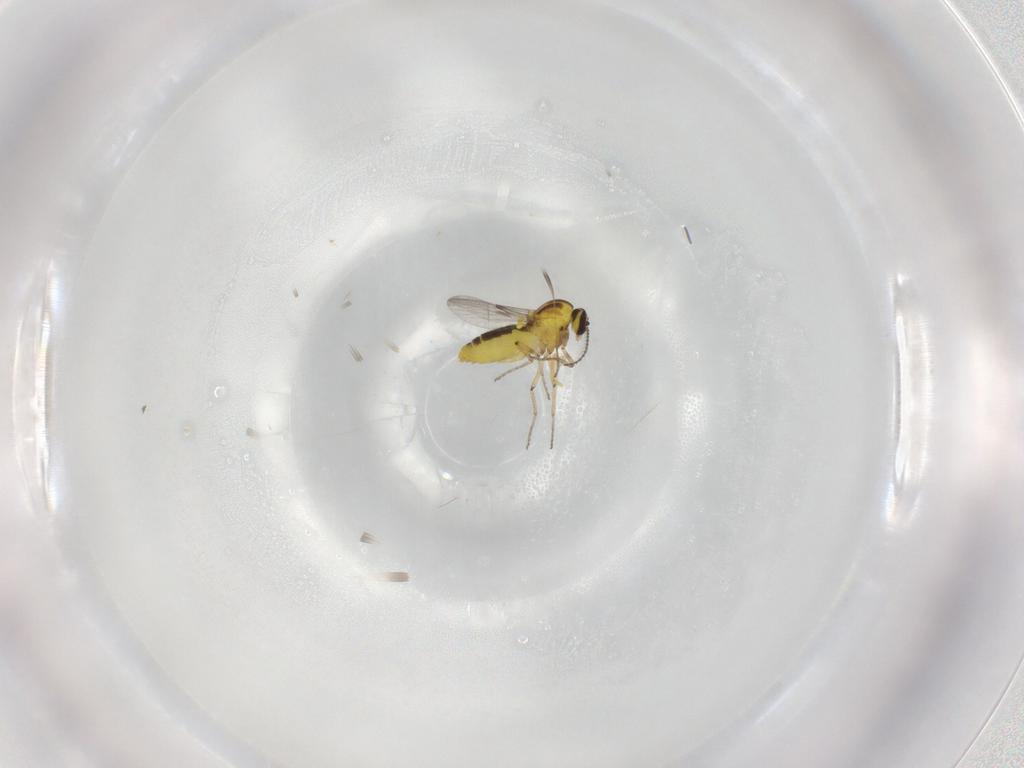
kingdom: Animalia
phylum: Arthropoda
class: Insecta
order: Diptera
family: Ceratopogonidae
